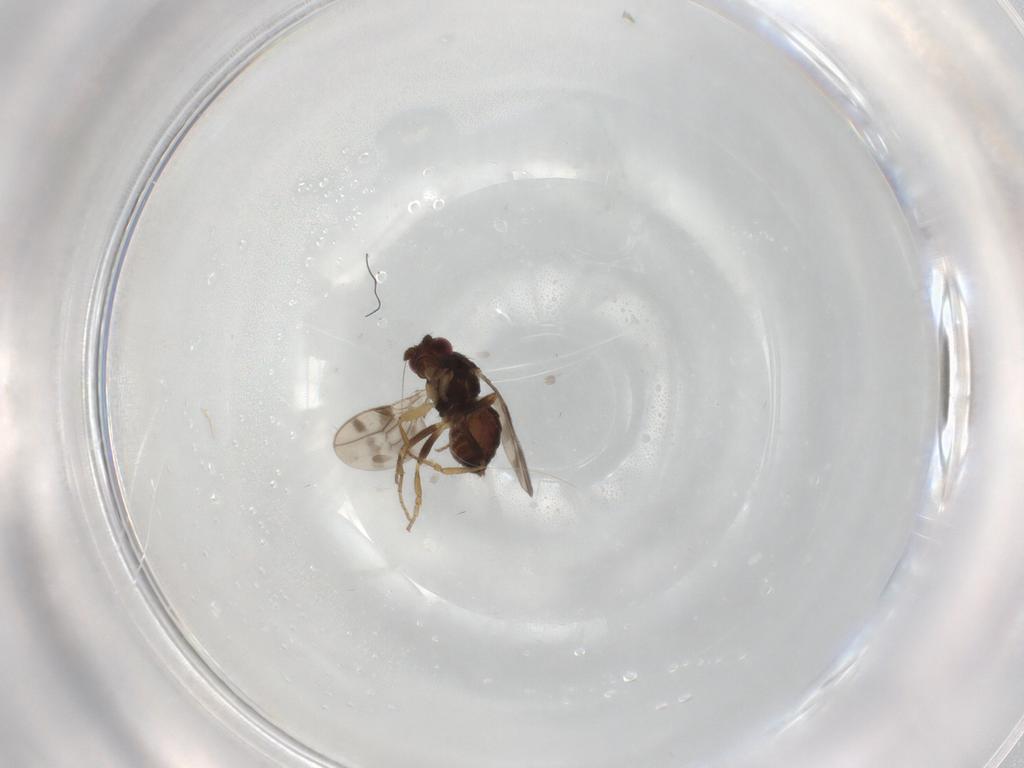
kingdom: Animalia
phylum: Arthropoda
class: Insecta
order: Diptera
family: Sphaeroceridae
